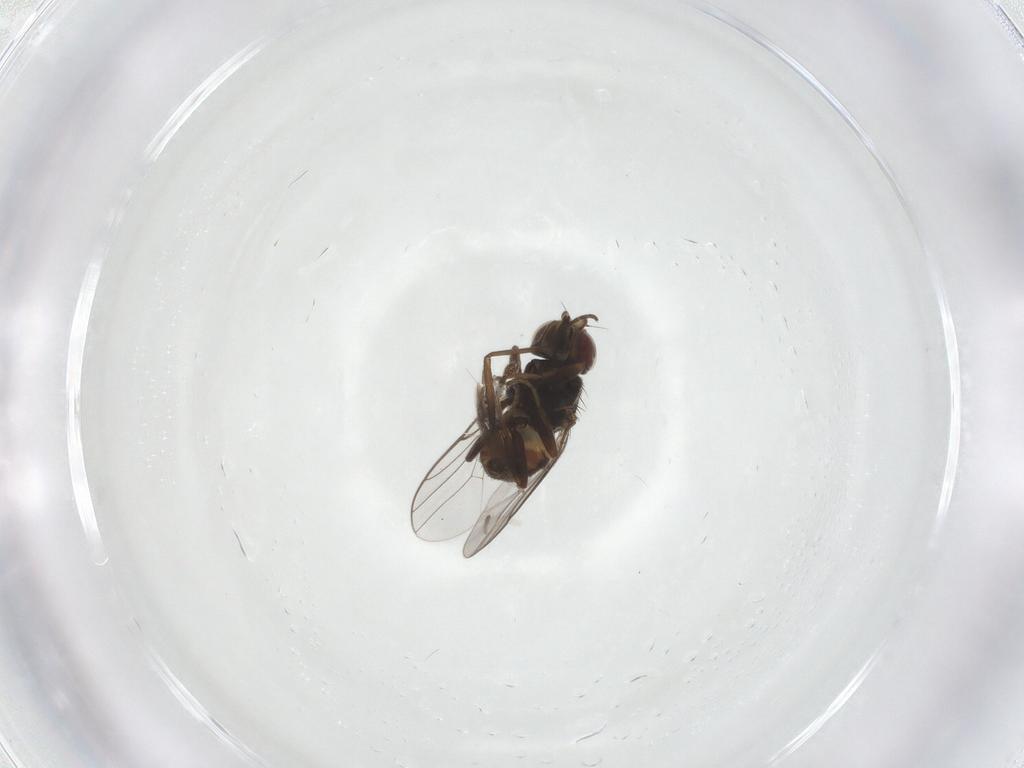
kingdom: Animalia
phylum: Arthropoda
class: Insecta
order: Diptera
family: Chloropidae
